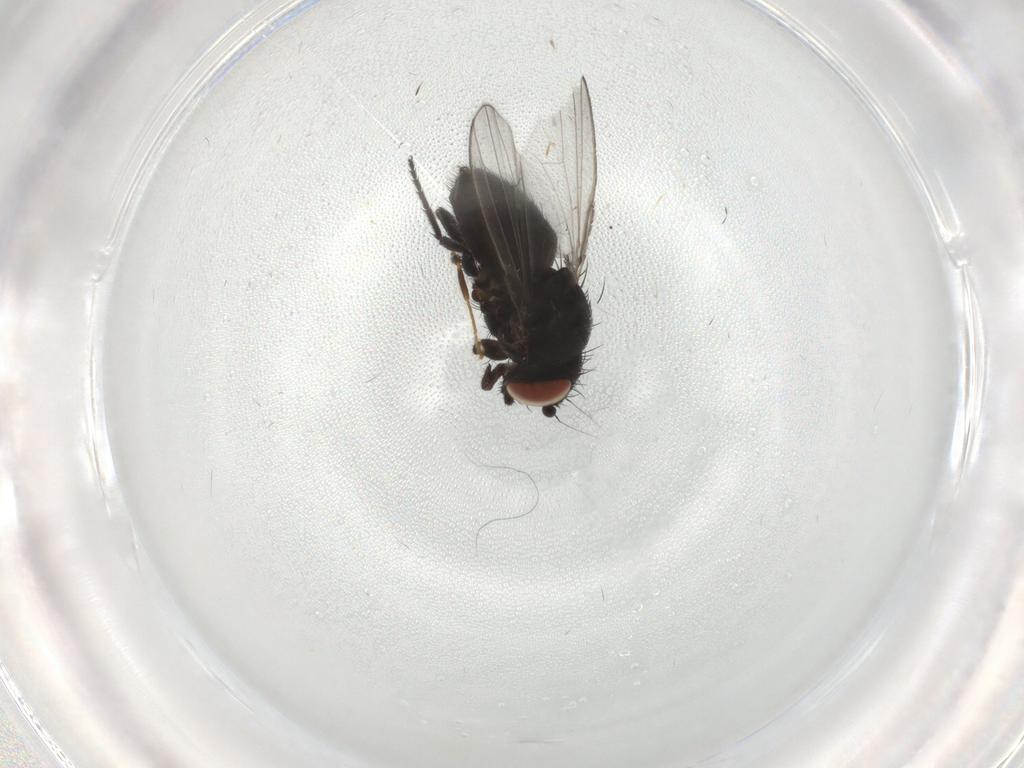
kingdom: Animalia
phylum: Arthropoda
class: Insecta
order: Diptera
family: Milichiidae
